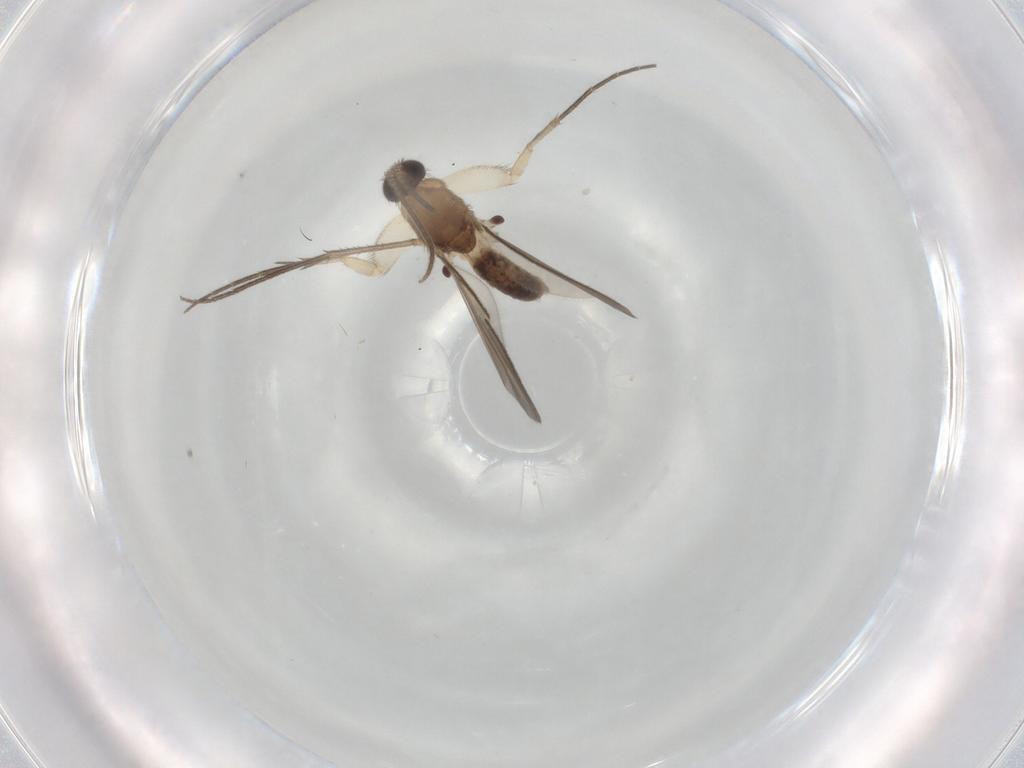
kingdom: Animalia
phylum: Arthropoda
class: Insecta
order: Diptera
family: Mycetophilidae
